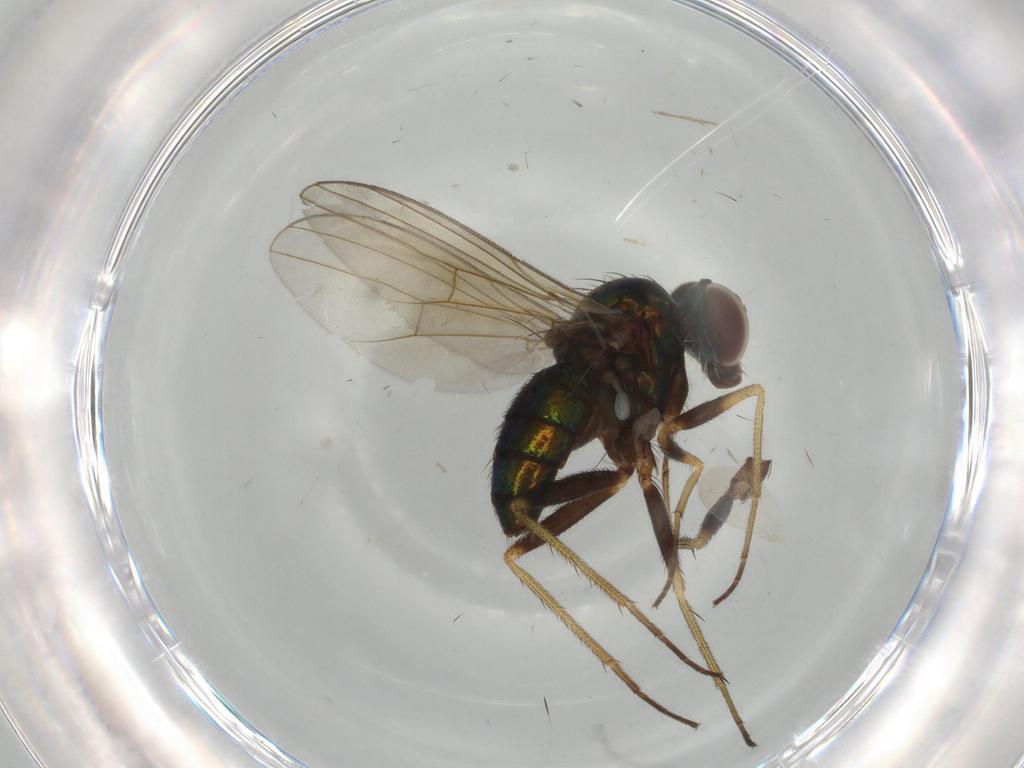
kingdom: Animalia
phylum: Arthropoda
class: Insecta
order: Diptera
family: Dolichopodidae
